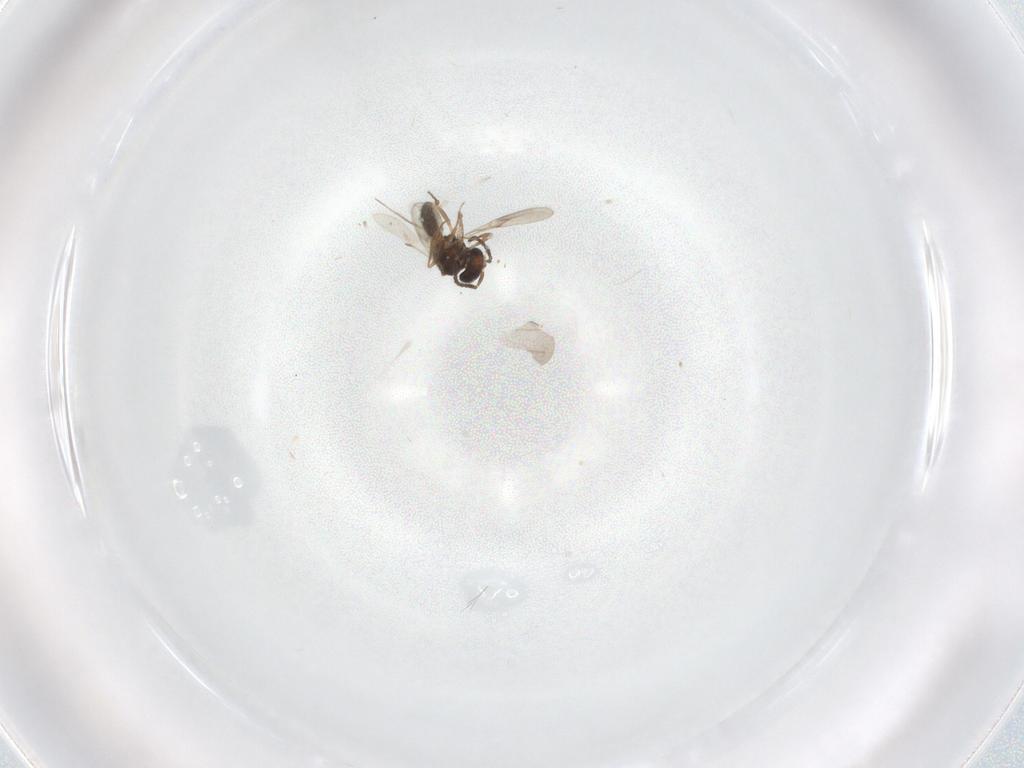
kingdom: Animalia
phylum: Arthropoda
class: Insecta
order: Hymenoptera
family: Scelionidae
